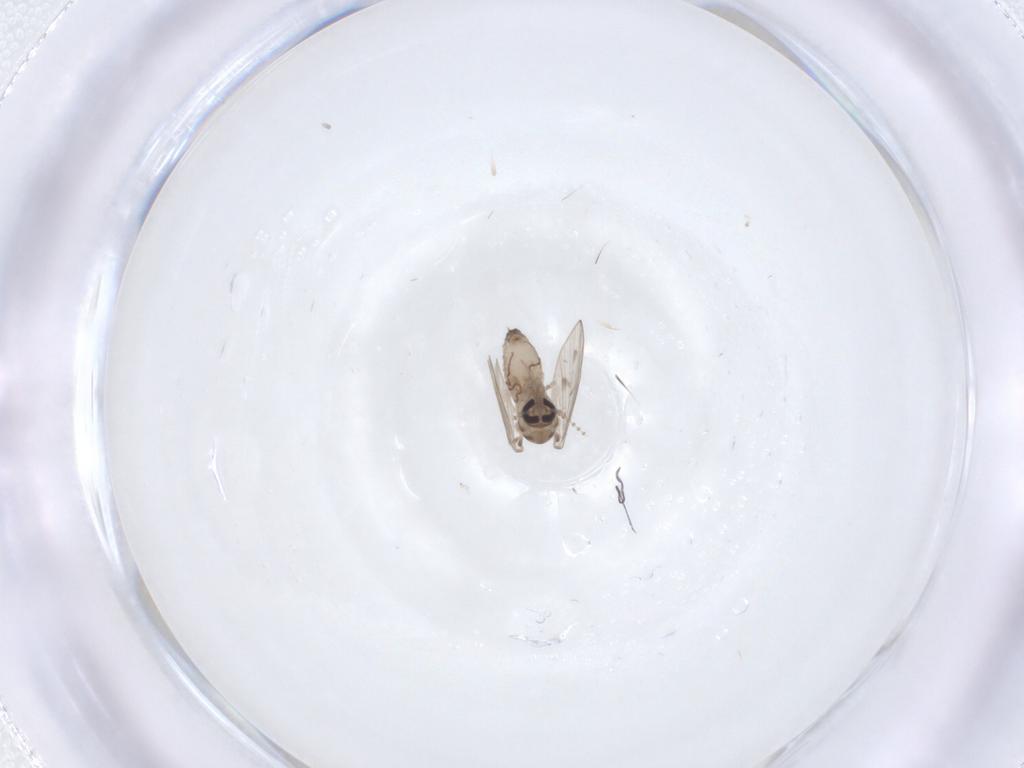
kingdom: Animalia
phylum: Arthropoda
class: Insecta
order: Diptera
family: Psychodidae
